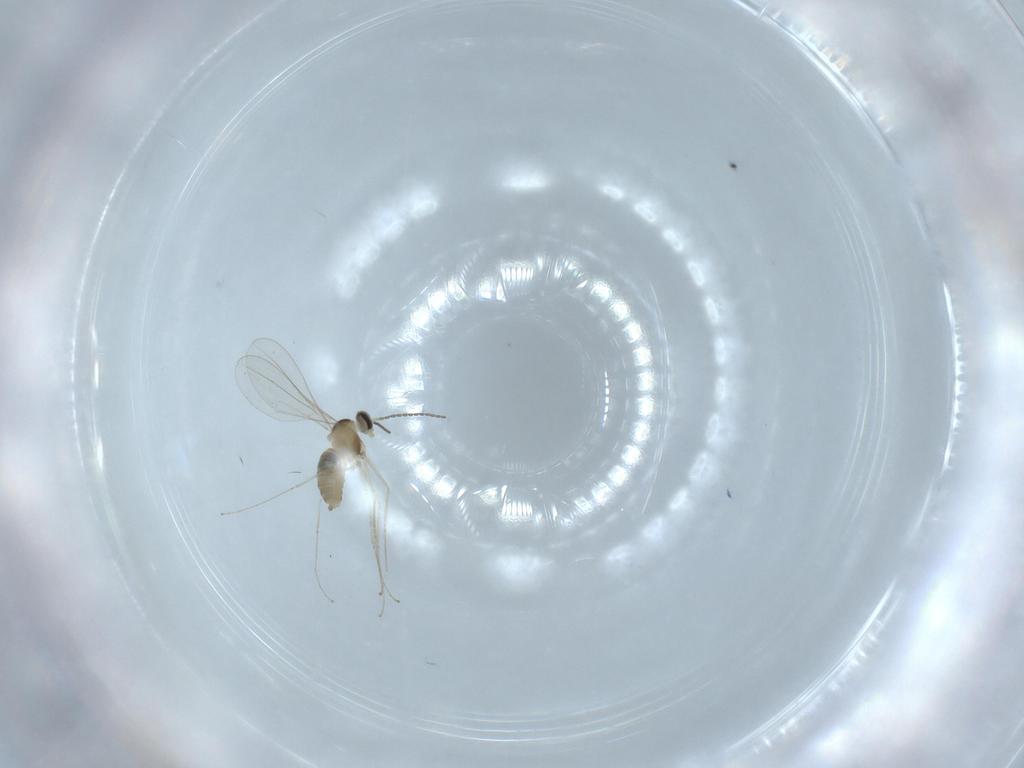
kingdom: Animalia
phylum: Arthropoda
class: Insecta
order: Diptera
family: Cecidomyiidae
